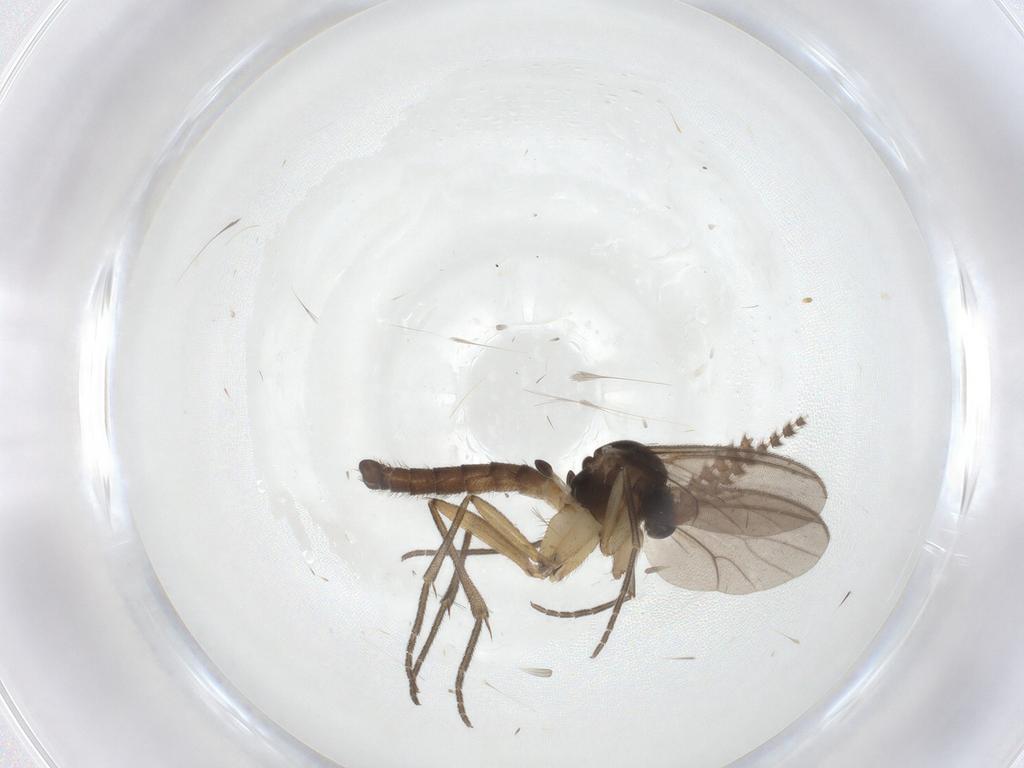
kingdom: Animalia
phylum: Arthropoda
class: Insecta
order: Diptera
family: Mycetophilidae
